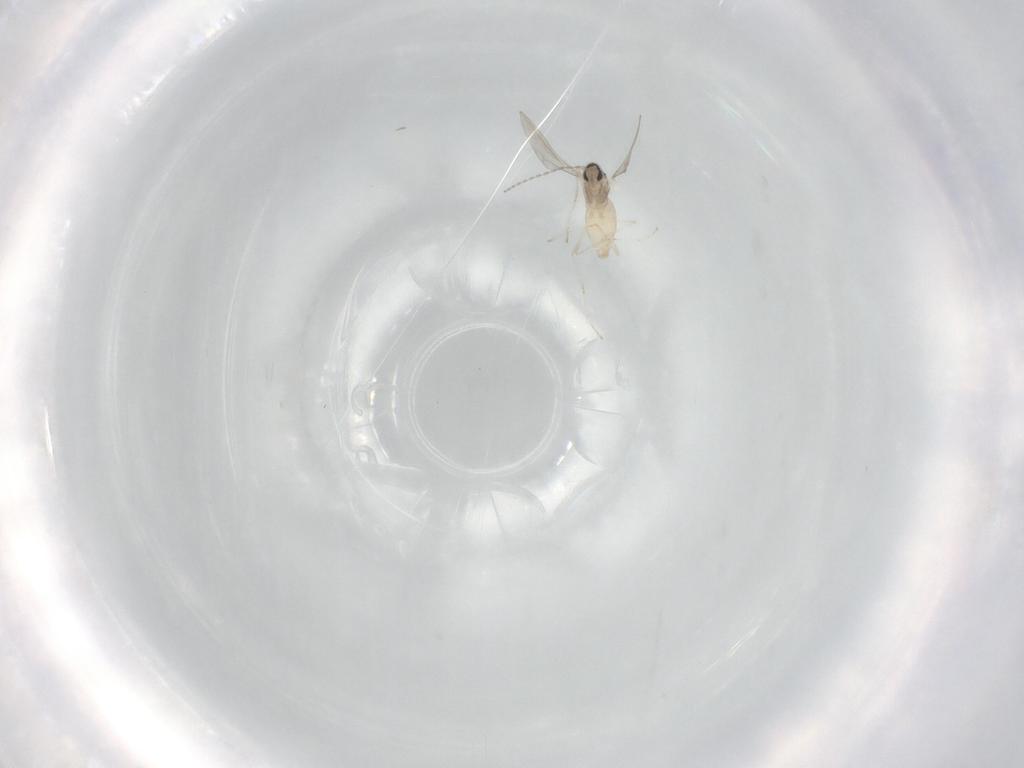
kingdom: Animalia
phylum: Arthropoda
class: Insecta
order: Diptera
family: Cecidomyiidae
